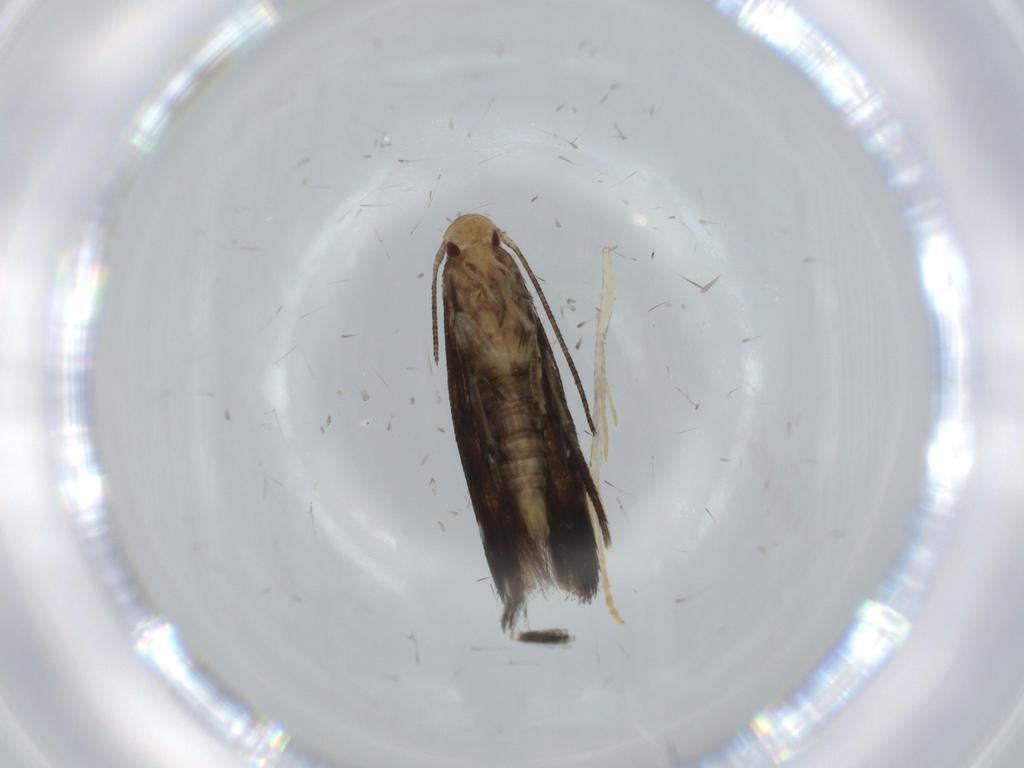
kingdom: Animalia
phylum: Arthropoda
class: Insecta
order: Lepidoptera
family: Momphidae
